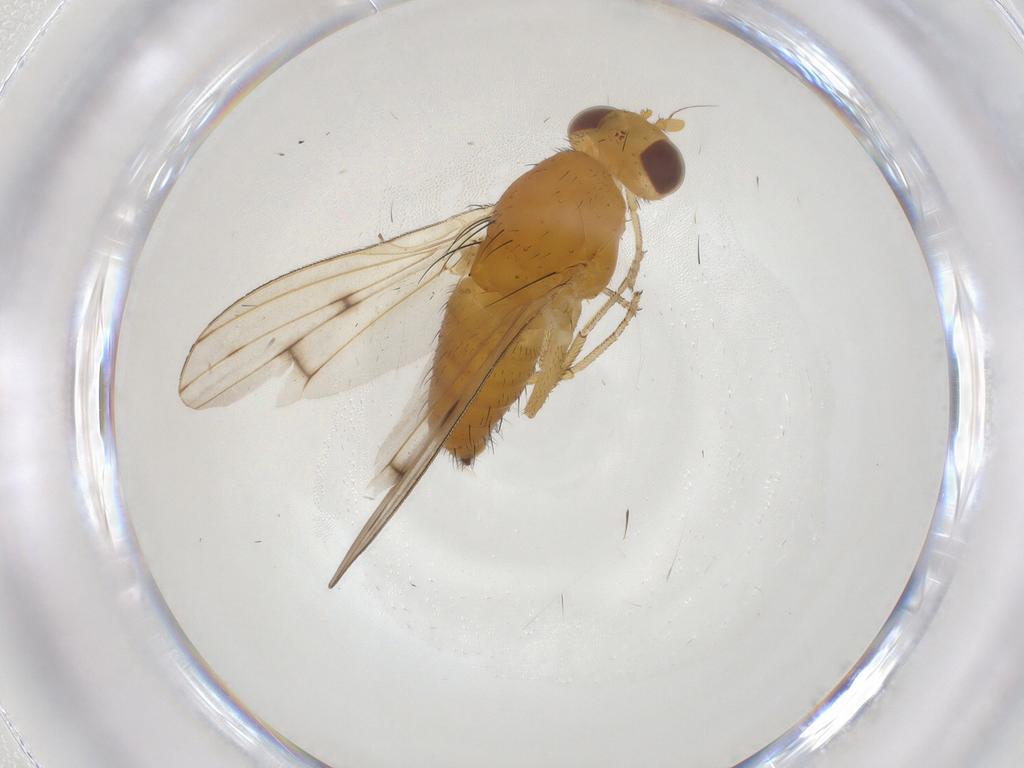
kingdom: Animalia
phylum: Arthropoda
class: Insecta
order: Diptera
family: Lauxaniidae
